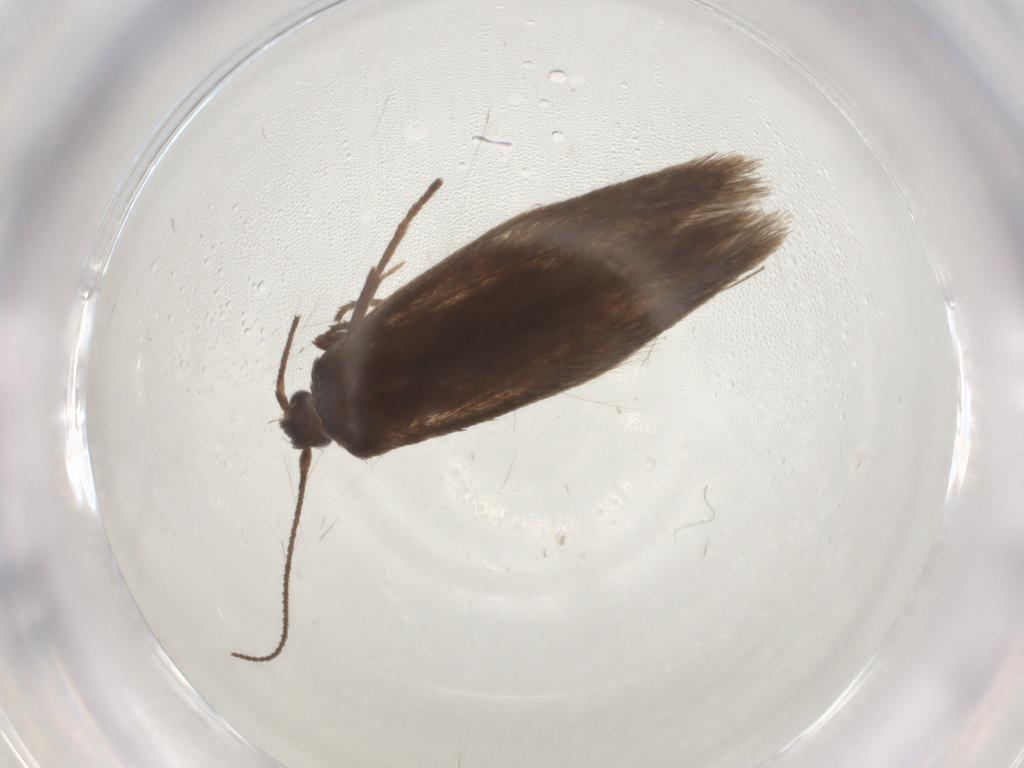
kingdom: Animalia
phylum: Arthropoda
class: Insecta
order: Lepidoptera
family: Limacodidae
